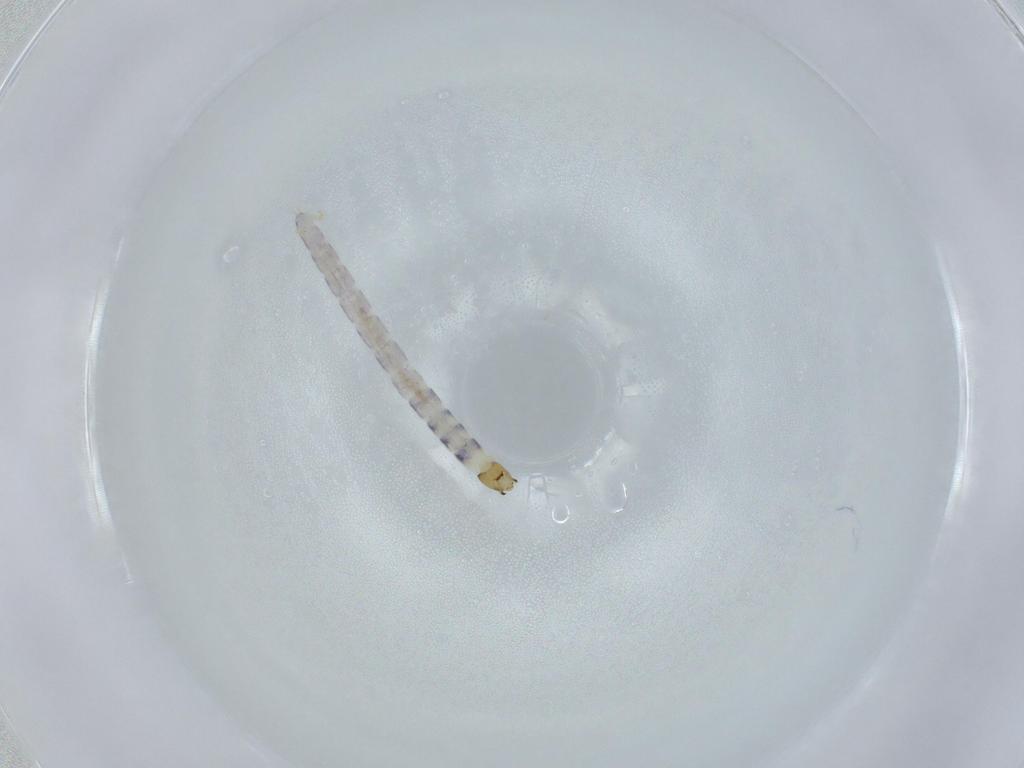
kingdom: Animalia
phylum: Arthropoda
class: Insecta
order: Diptera
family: Chironomidae
